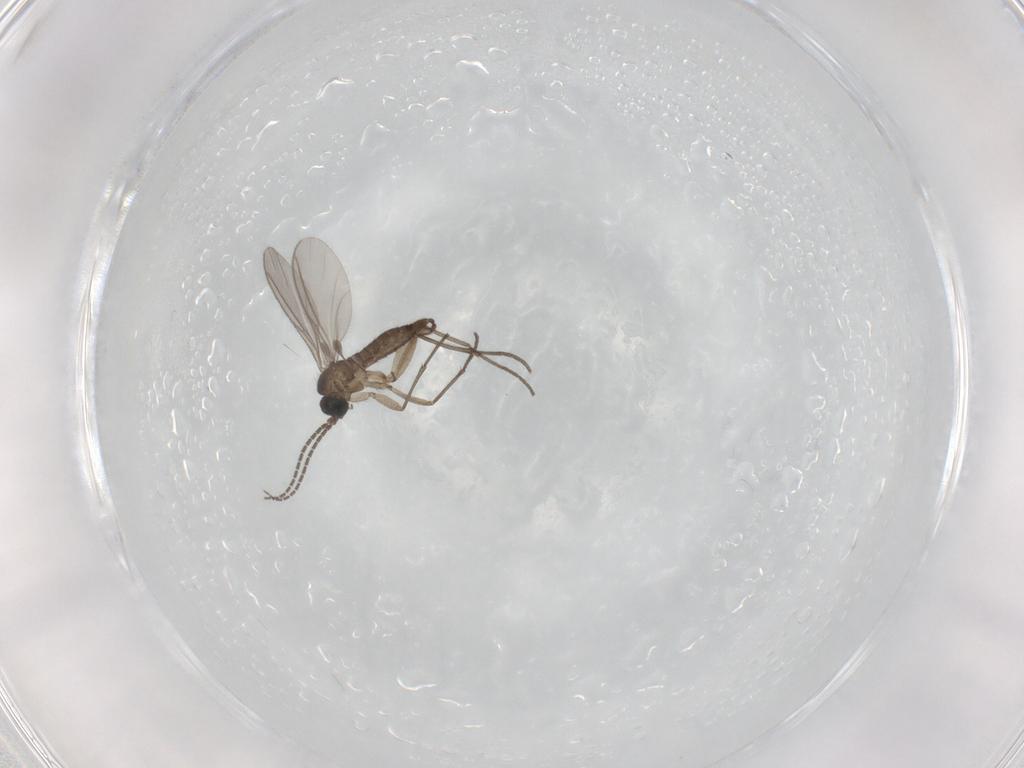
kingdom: Animalia
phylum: Arthropoda
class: Insecta
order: Diptera
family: Sciaridae
